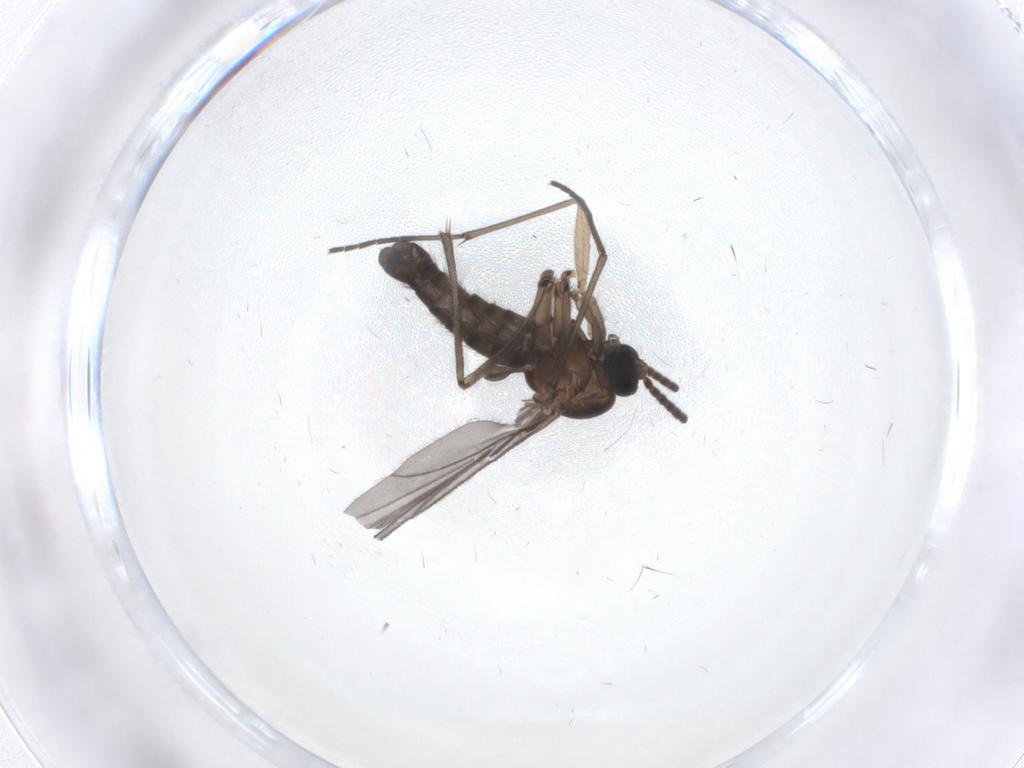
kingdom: Animalia
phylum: Arthropoda
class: Insecta
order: Diptera
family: Sciaridae
